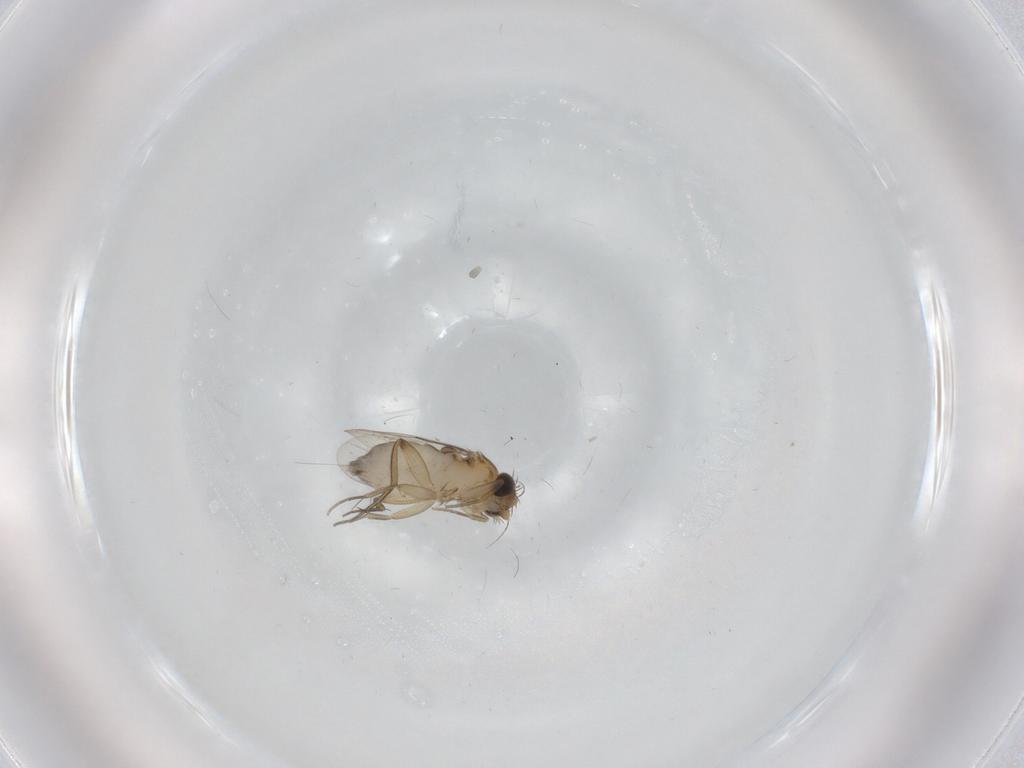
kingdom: Animalia
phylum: Arthropoda
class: Insecta
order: Diptera
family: Phoridae
